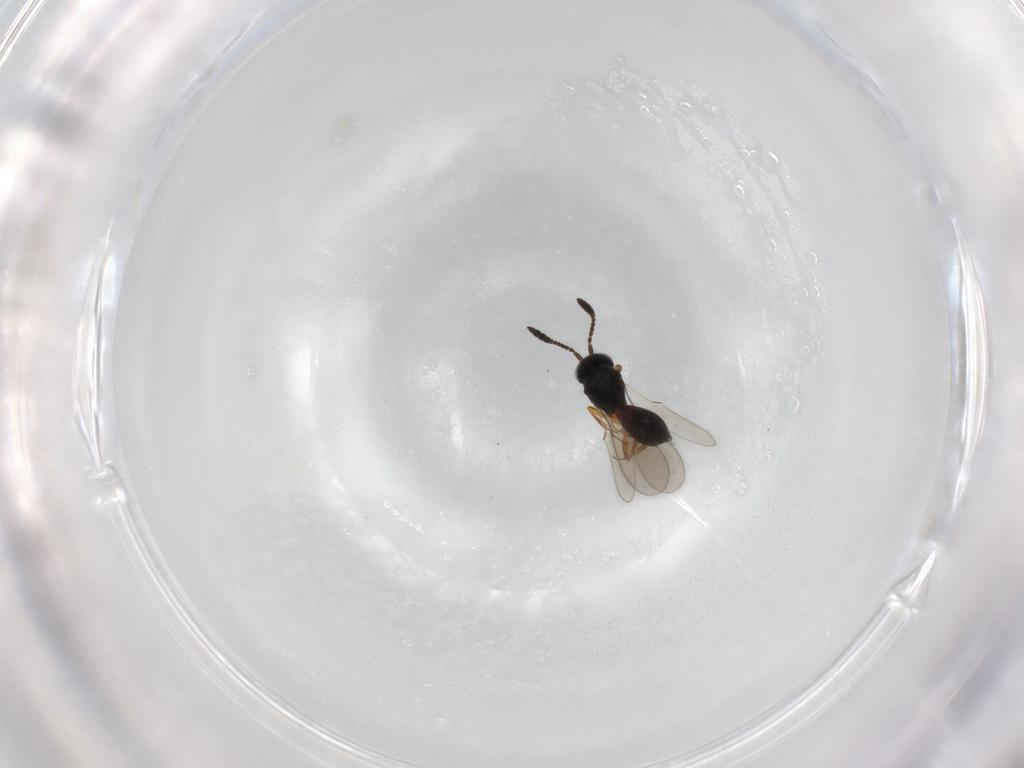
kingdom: Animalia
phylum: Arthropoda
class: Insecta
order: Hymenoptera
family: Scelionidae
